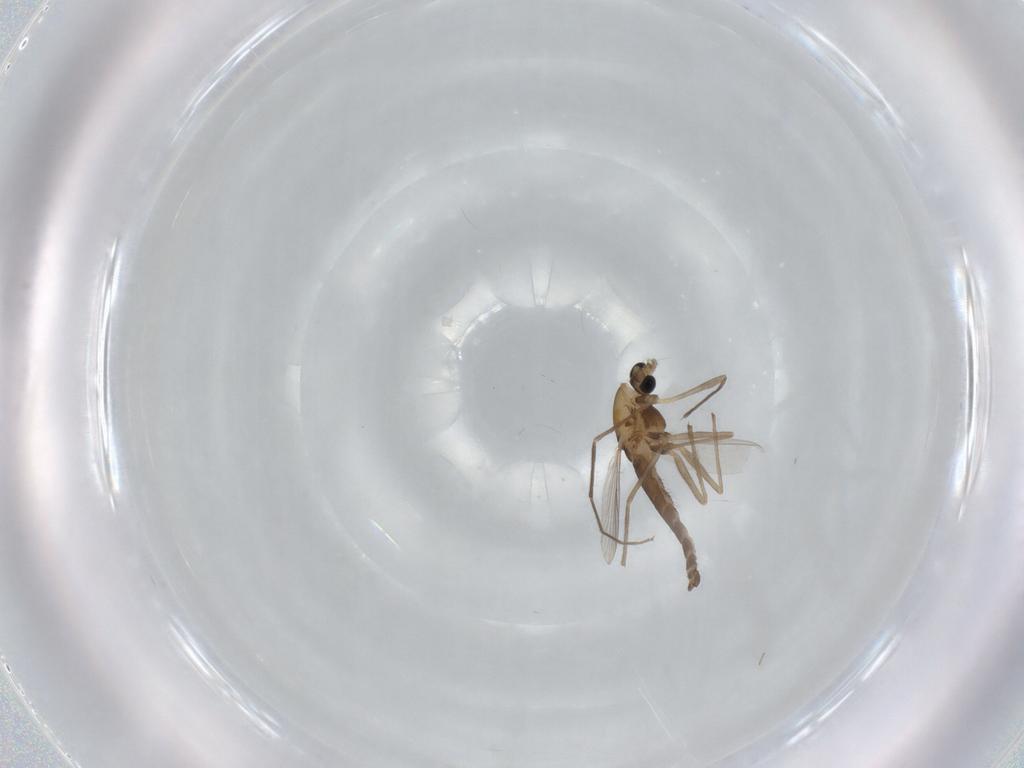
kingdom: Animalia
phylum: Arthropoda
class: Insecta
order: Diptera
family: Chironomidae
